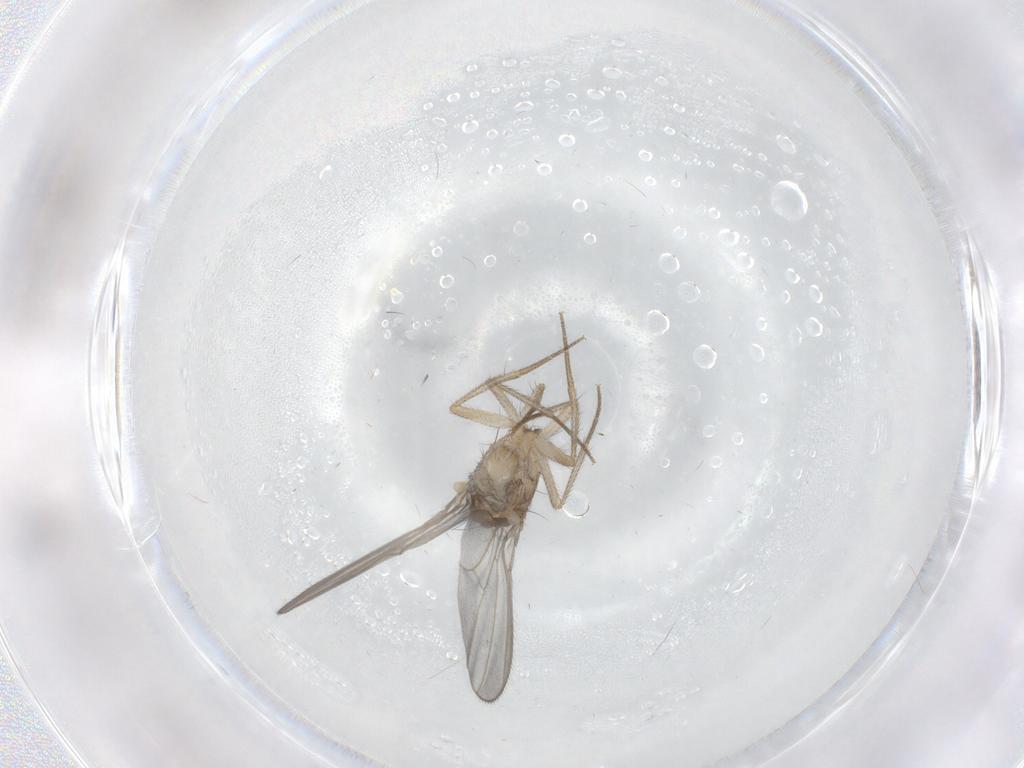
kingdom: Animalia
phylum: Arthropoda
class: Insecta
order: Diptera
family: Drosophilidae
